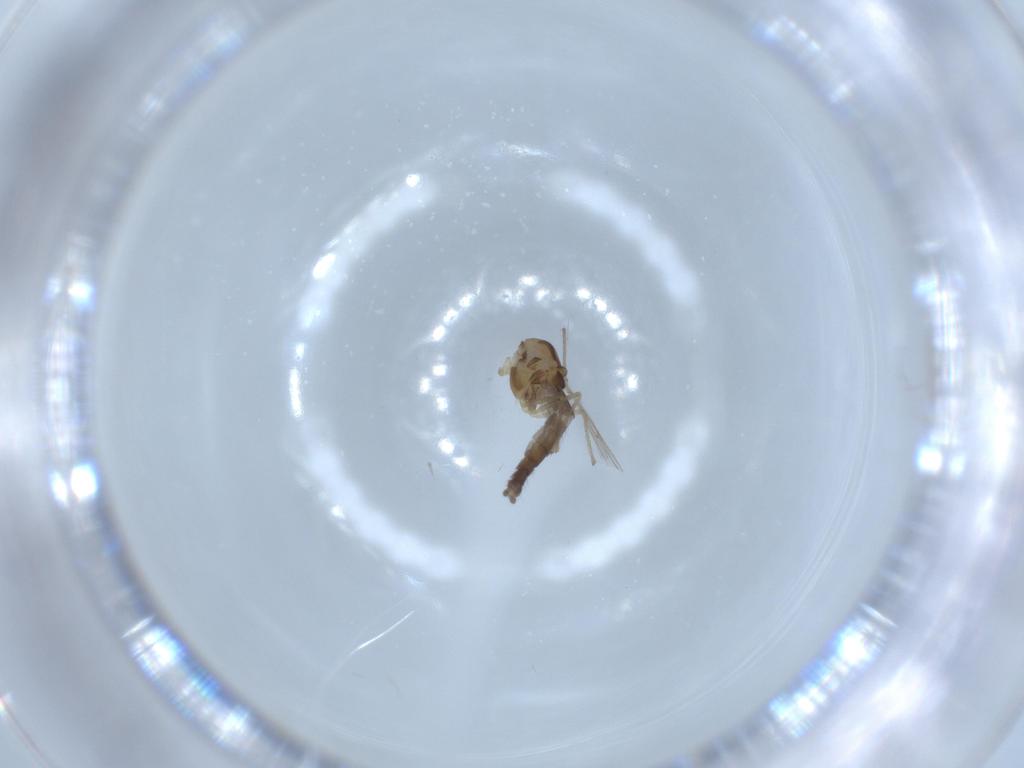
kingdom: Animalia
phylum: Arthropoda
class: Insecta
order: Diptera
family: Chironomidae
